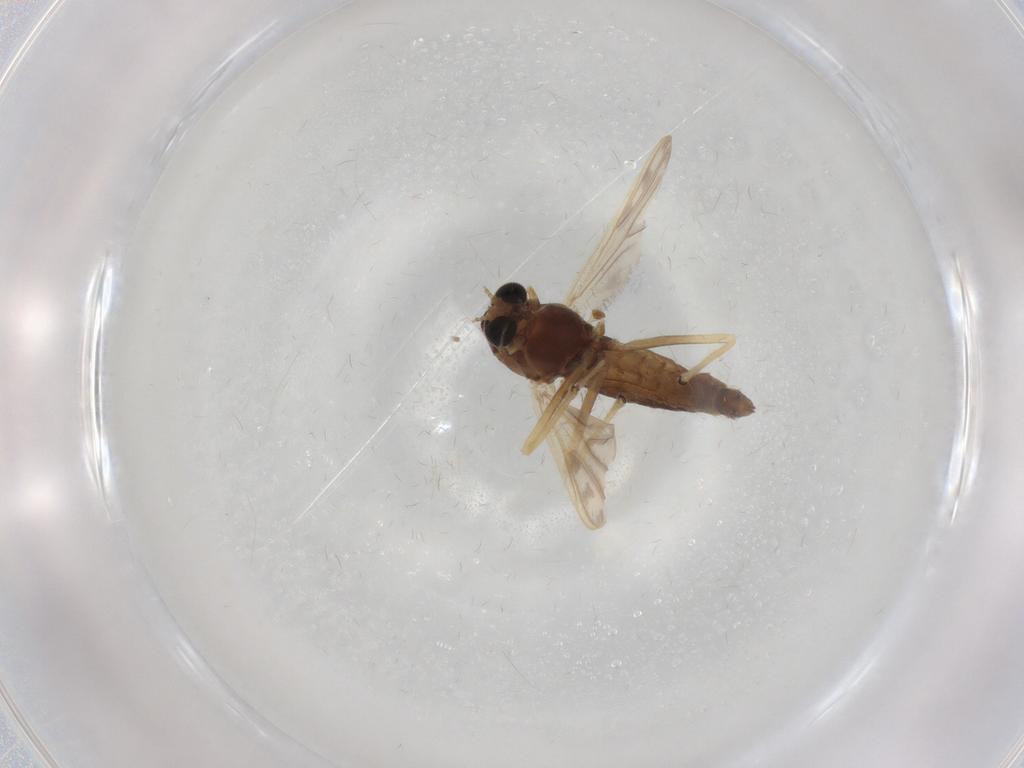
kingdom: Animalia
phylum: Arthropoda
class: Insecta
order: Diptera
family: Chironomidae
